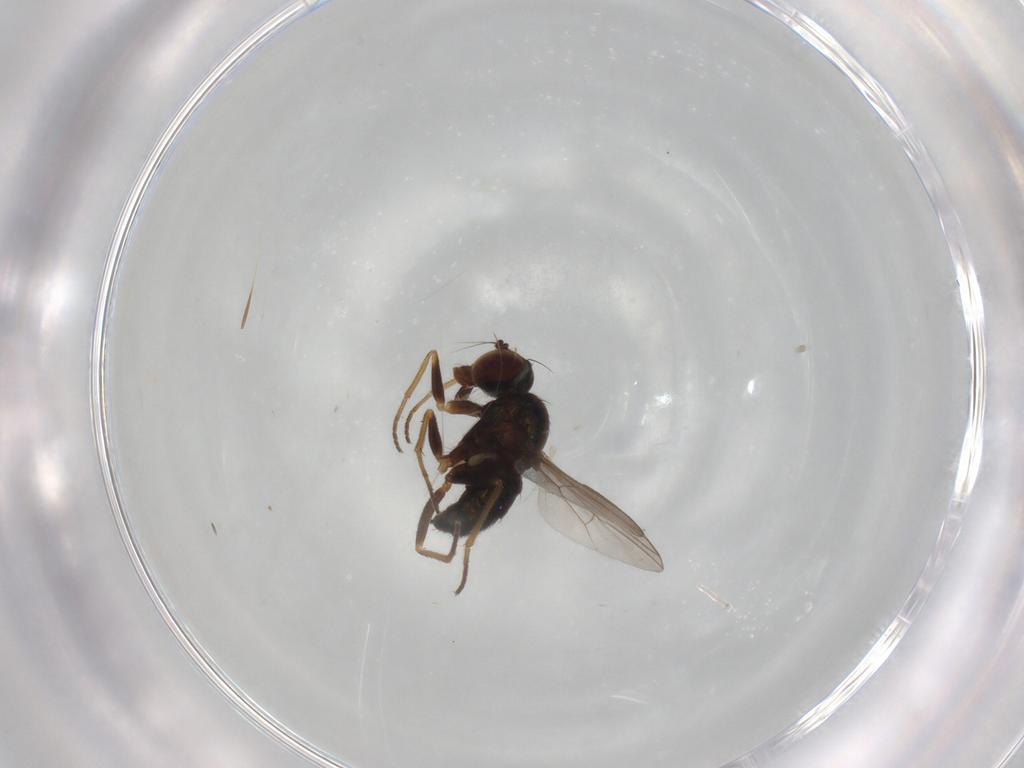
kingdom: Animalia
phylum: Arthropoda
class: Insecta
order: Diptera
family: Dolichopodidae
